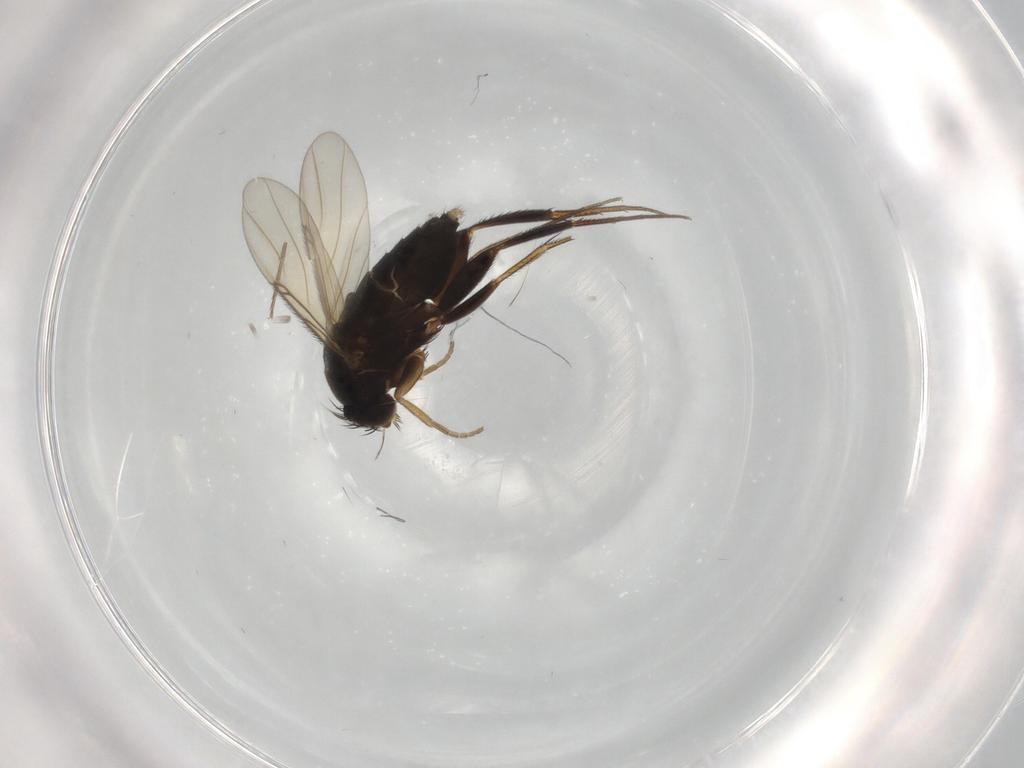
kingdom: Animalia
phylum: Arthropoda
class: Insecta
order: Diptera
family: Phoridae
